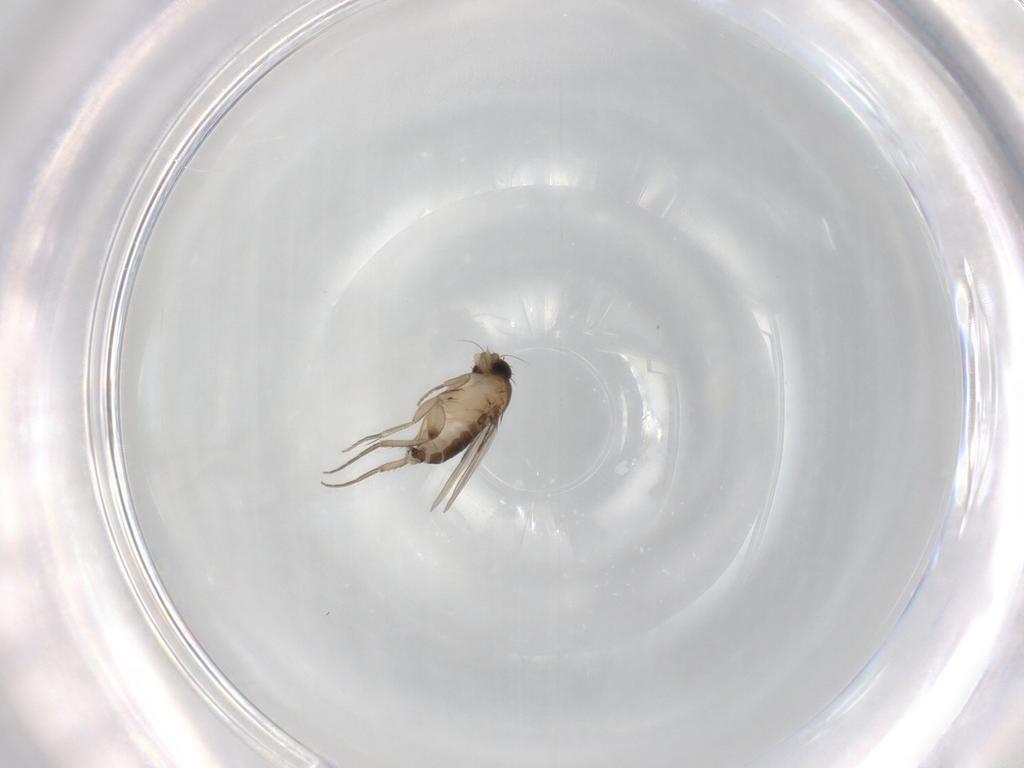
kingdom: Animalia
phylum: Arthropoda
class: Insecta
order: Diptera
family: Phoridae
